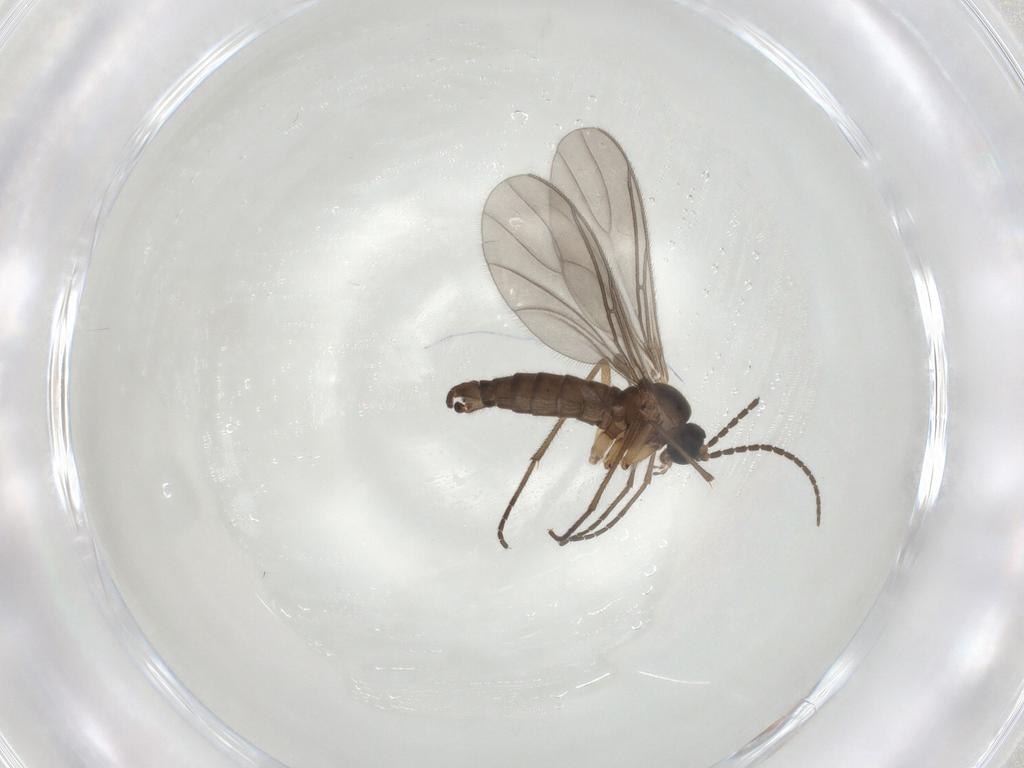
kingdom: Animalia
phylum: Arthropoda
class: Insecta
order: Diptera
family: Sciaridae
